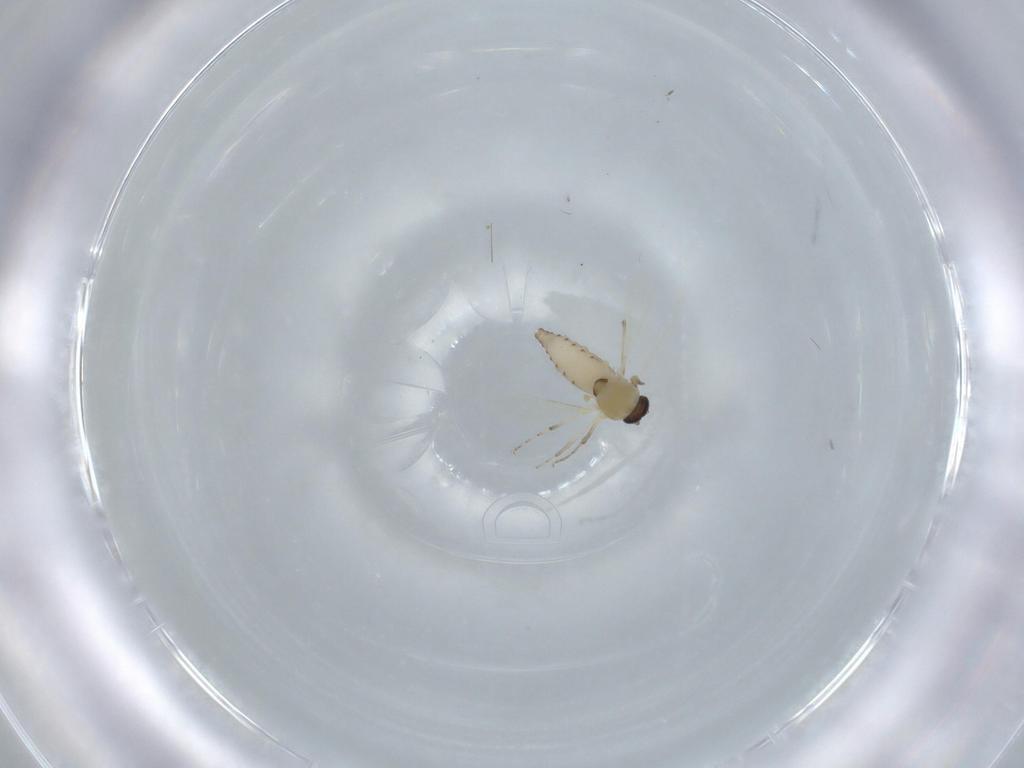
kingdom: Animalia
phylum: Arthropoda
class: Insecta
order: Diptera
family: Ceratopogonidae
